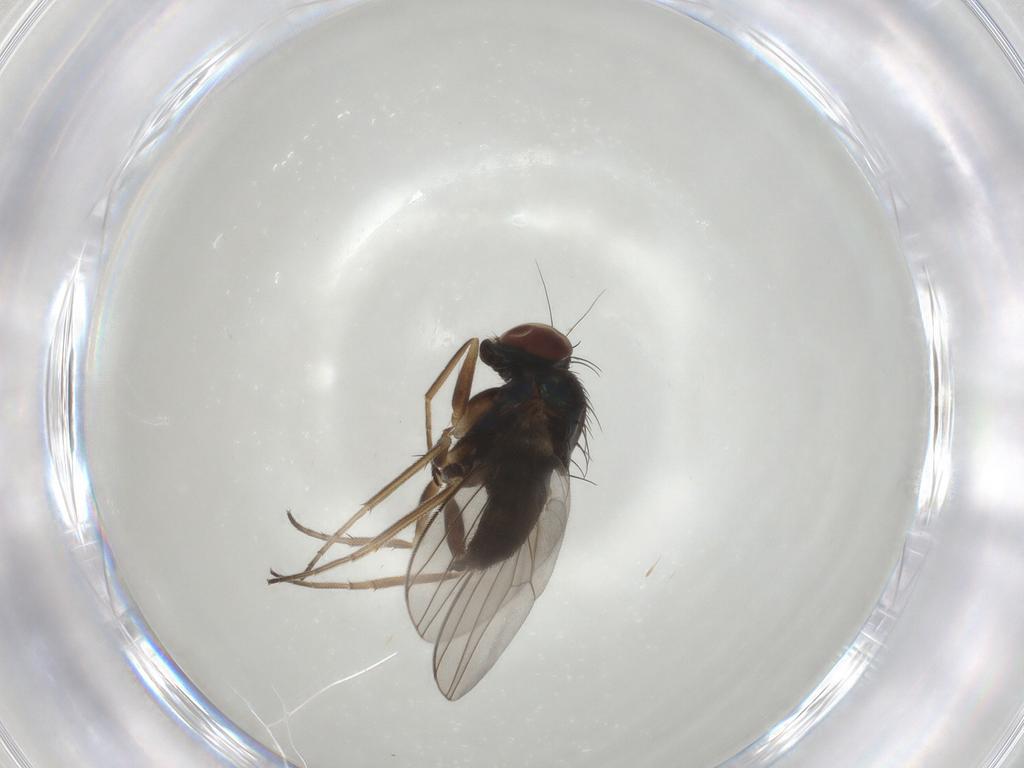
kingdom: Animalia
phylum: Arthropoda
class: Insecta
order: Diptera
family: Dolichopodidae
